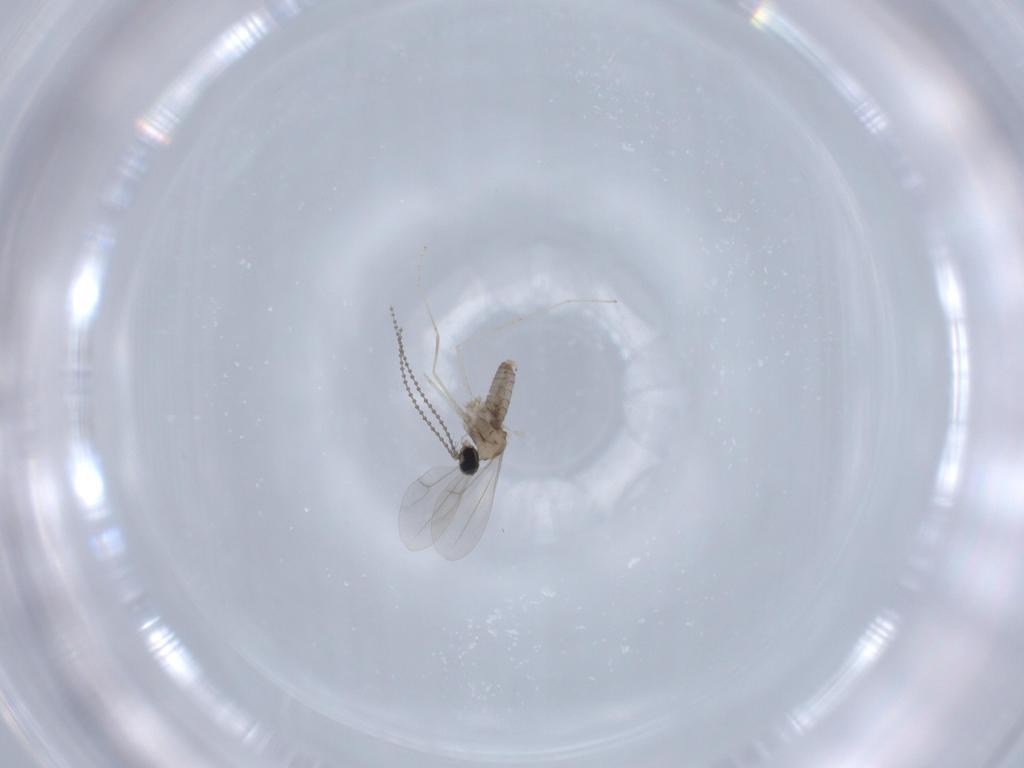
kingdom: Animalia
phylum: Arthropoda
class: Insecta
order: Diptera
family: Cecidomyiidae
